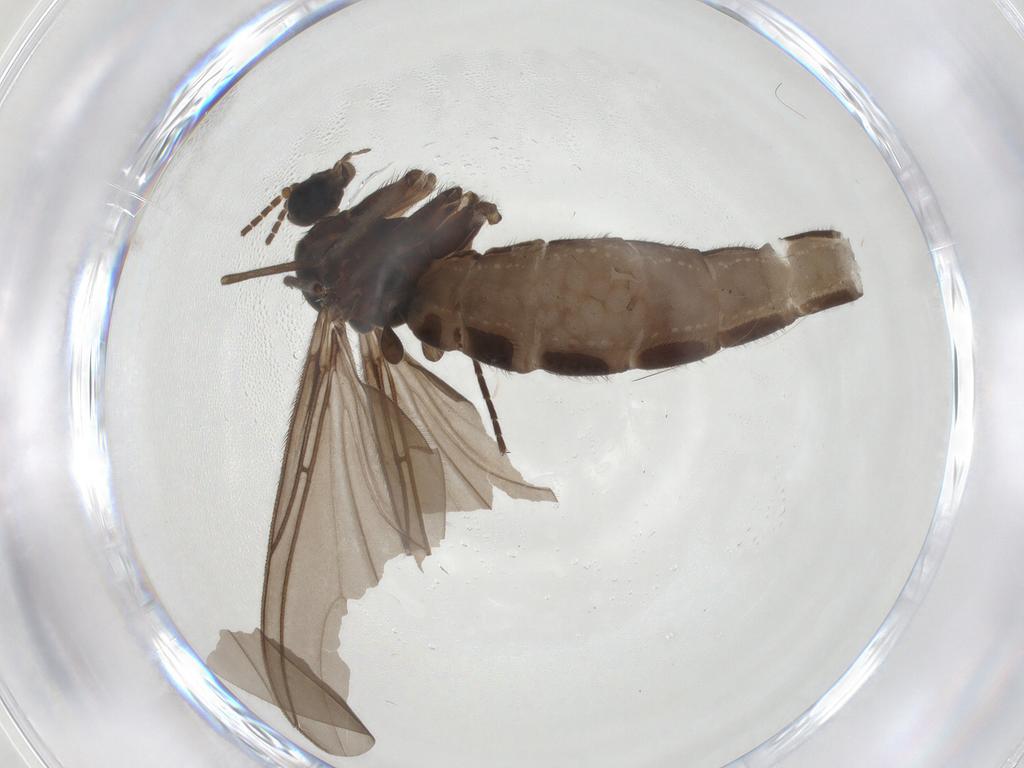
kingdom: Animalia
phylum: Arthropoda
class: Insecta
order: Diptera
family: Sciaridae
